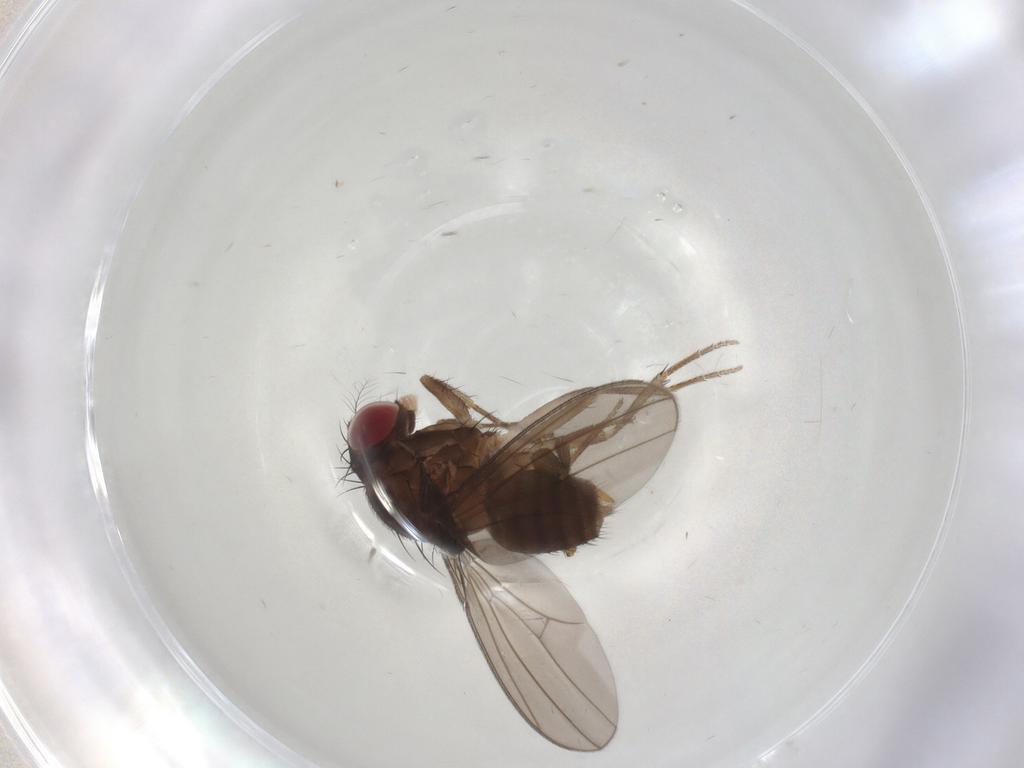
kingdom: Animalia
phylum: Arthropoda
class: Insecta
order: Diptera
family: Drosophilidae
